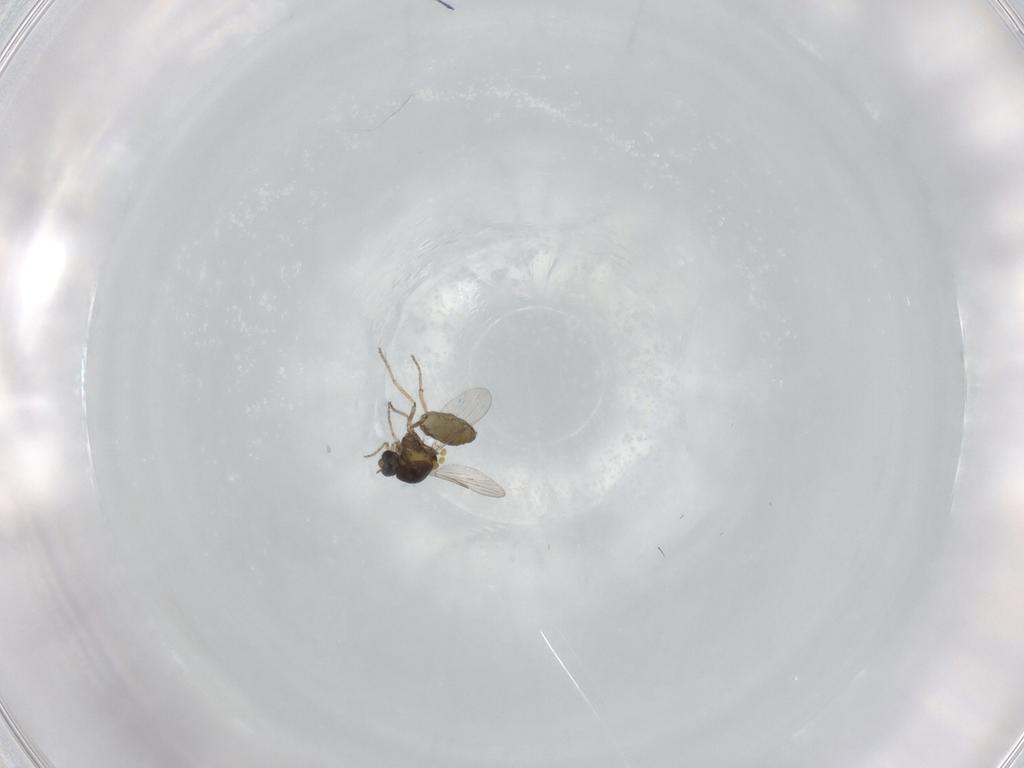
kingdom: Animalia
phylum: Arthropoda
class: Insecta
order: Diptera
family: Ceratopogonidae
